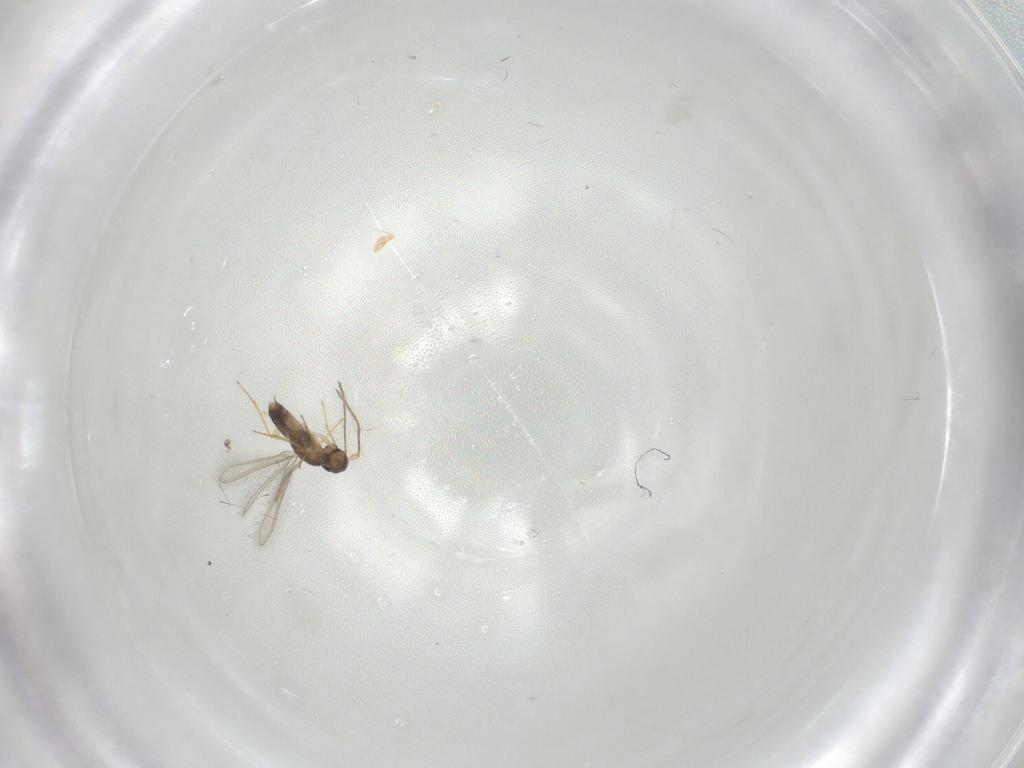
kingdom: Animalia
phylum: Arthropoda
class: Insecta
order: Hymenoptera
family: Mymaridae
